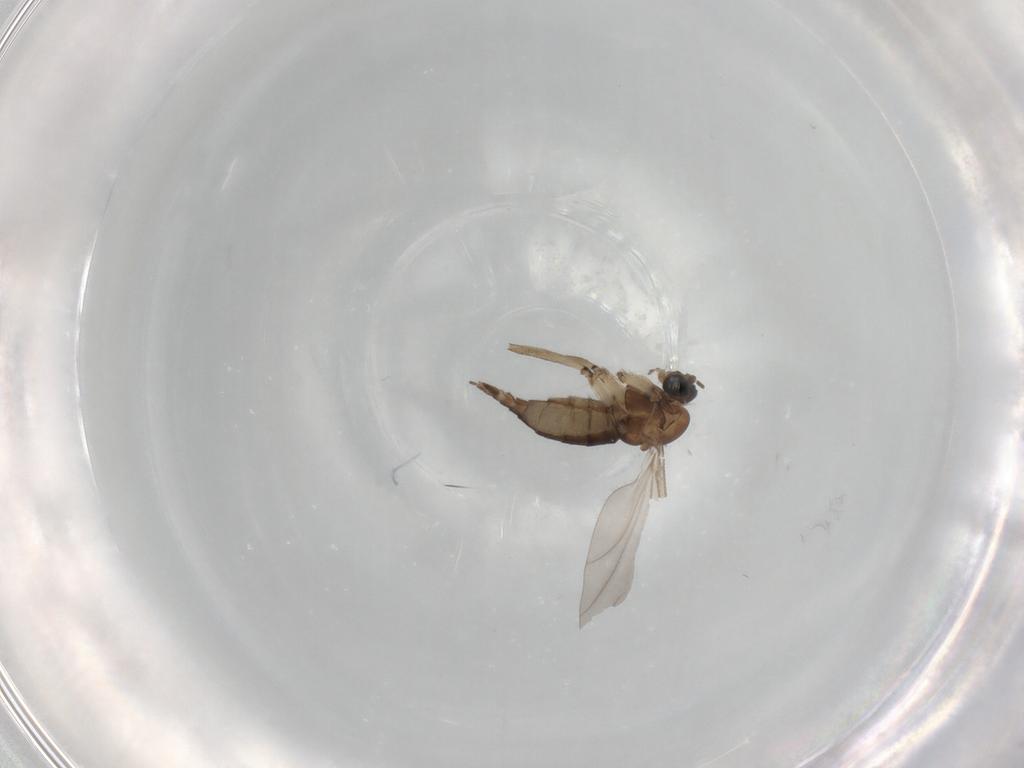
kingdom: Animalia
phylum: Arthropoda
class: Insecta
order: Diptera
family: Sciaridae
